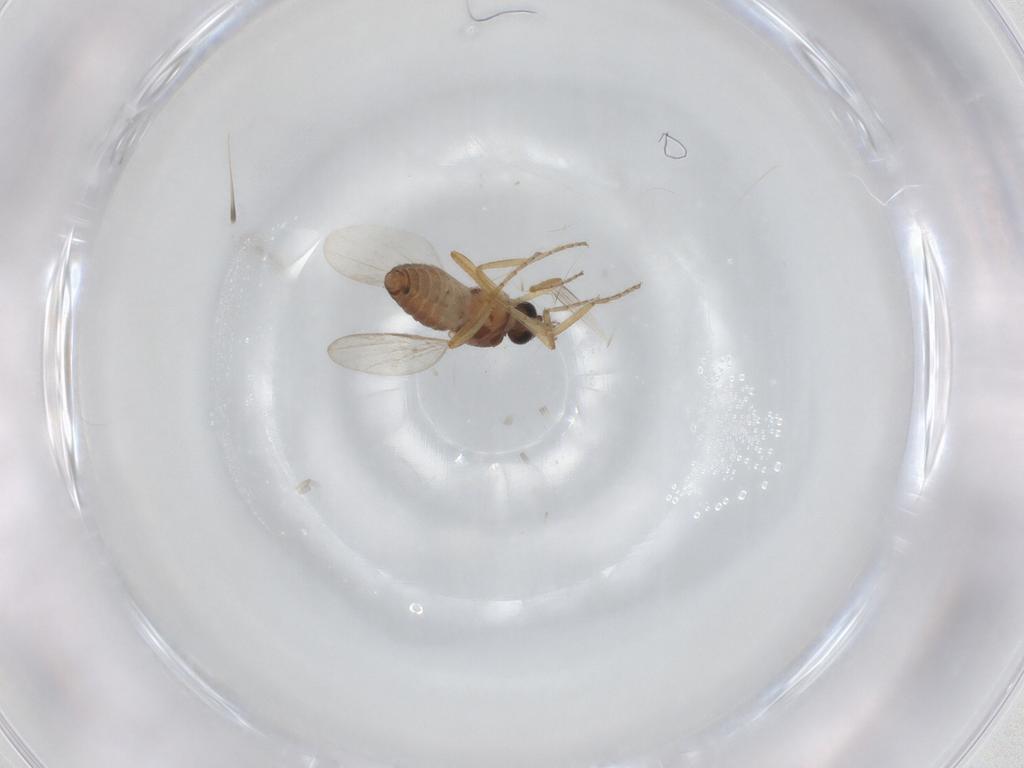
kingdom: Animalia
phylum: Arthropoda
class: Insecta
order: Diptera
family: Ceratopogonidae
